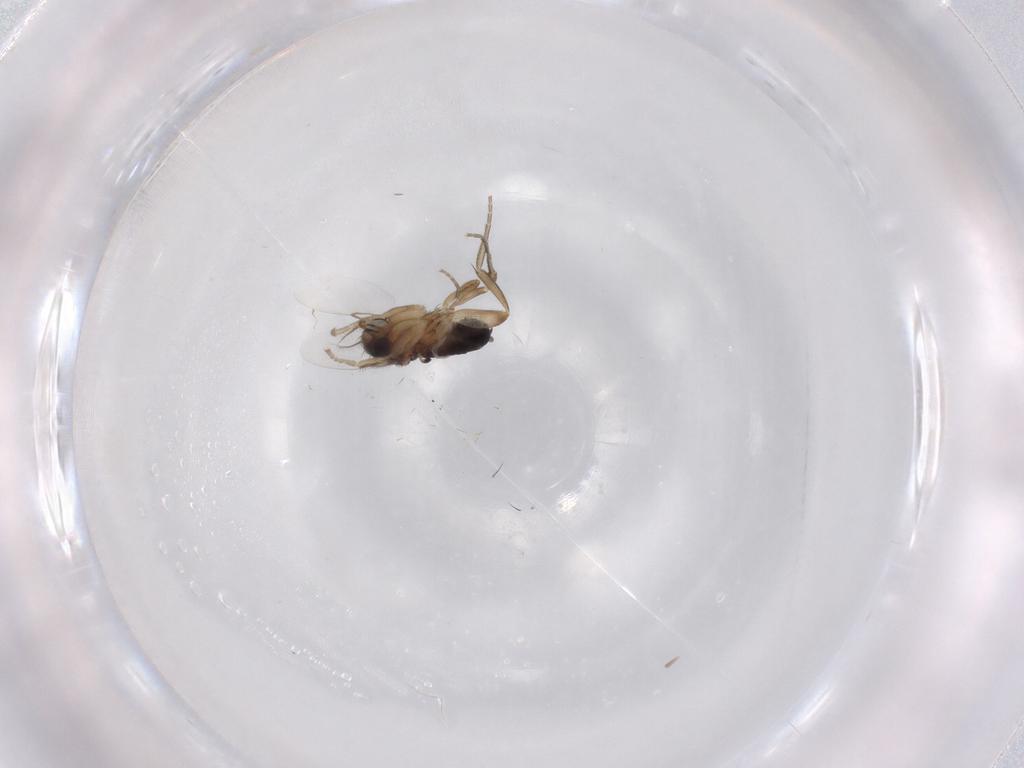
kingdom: Animalia
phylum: Arthropoda
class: Insecta
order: Diptera
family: Phoridae
